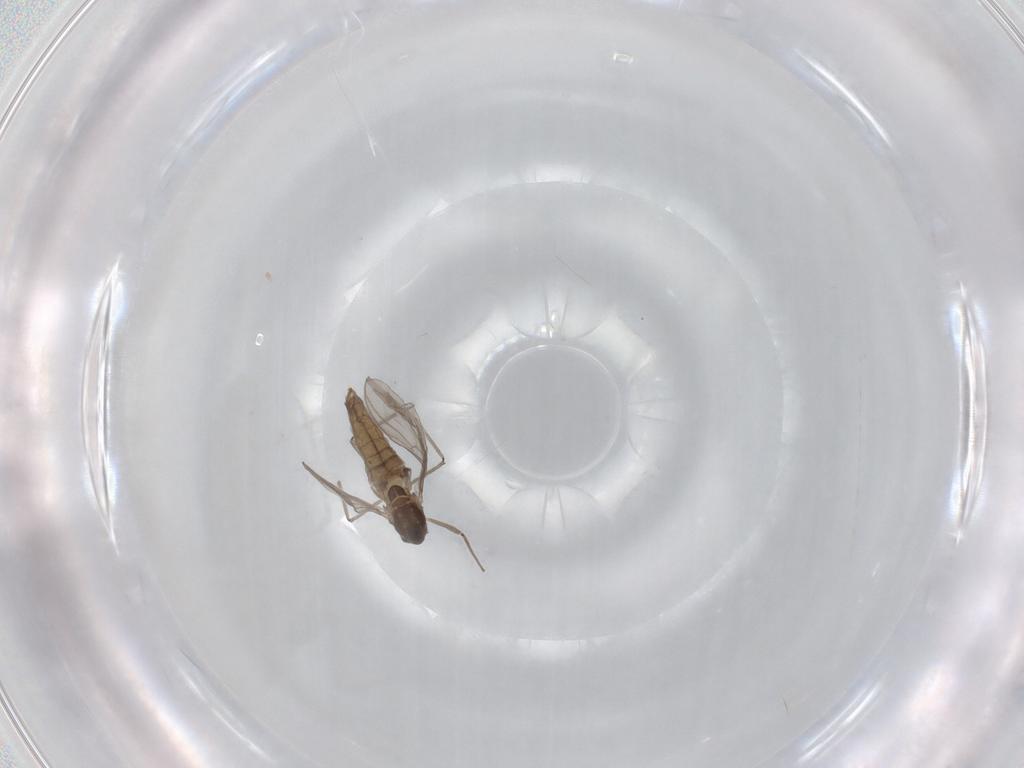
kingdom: Animalia
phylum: Arthropoda
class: Insecta
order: Diptera
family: Chironomidae
